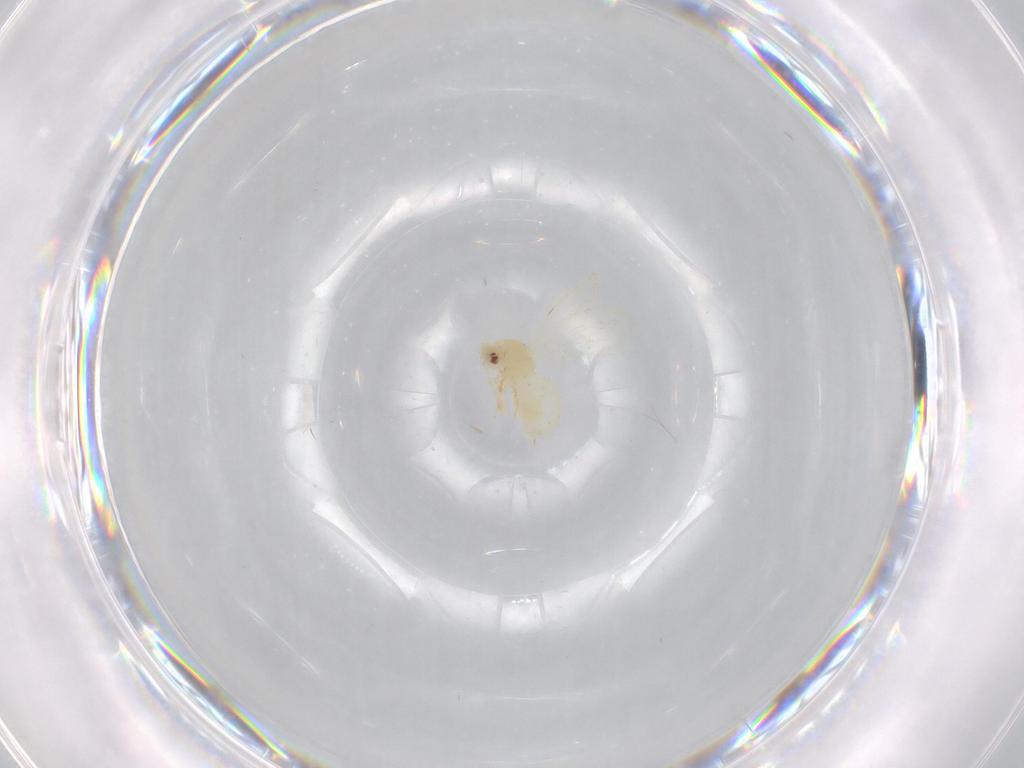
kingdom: Animalia
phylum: Arthropoda
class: Insecta
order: Hemiptera
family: Aleyrodidae
